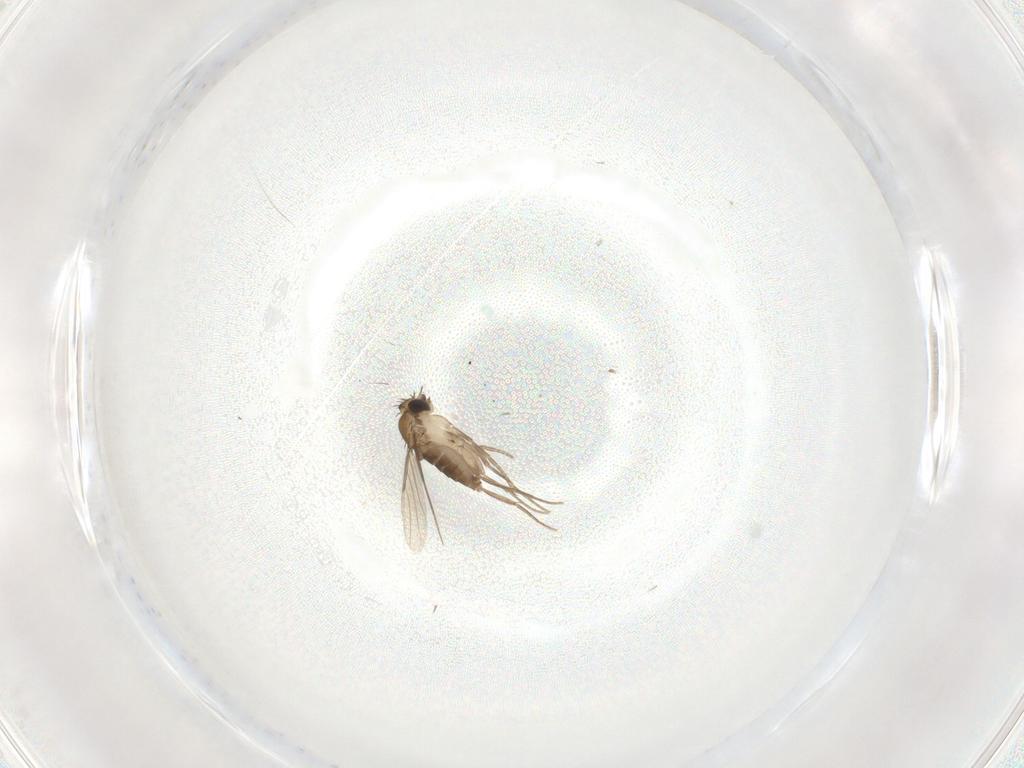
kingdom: Animalia
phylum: Arthropoda
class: Insecta
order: Diptera
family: Phoridae
